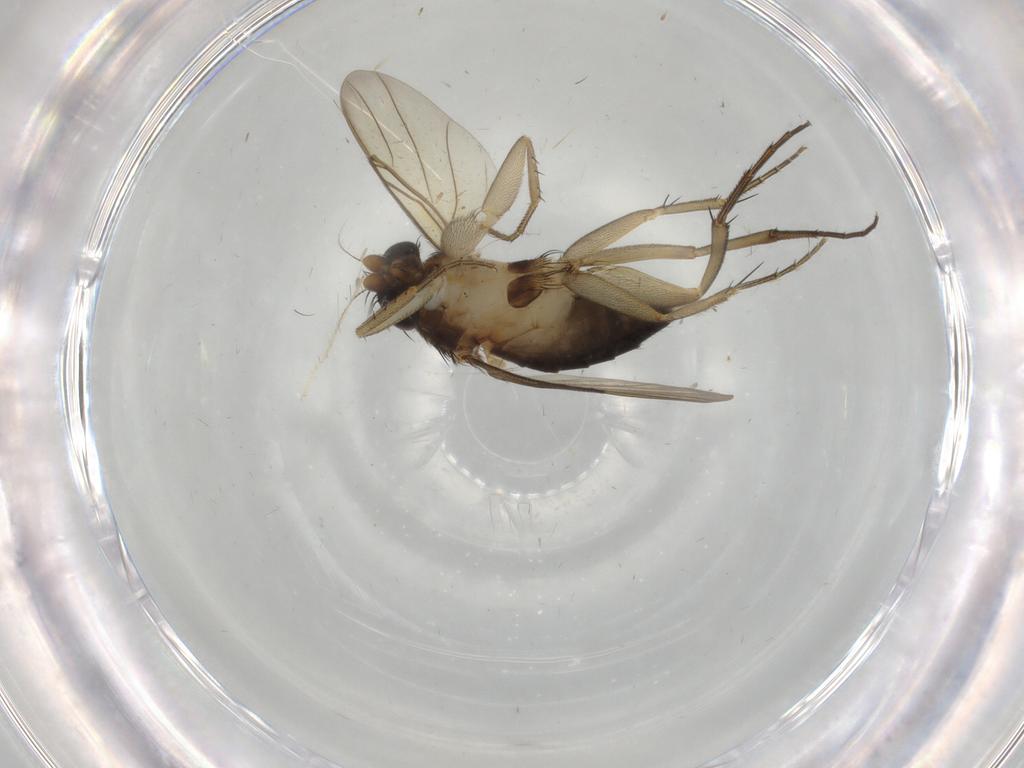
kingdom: Animalia
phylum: Arthropoda
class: Insecta
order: Diptera
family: Phoridae
